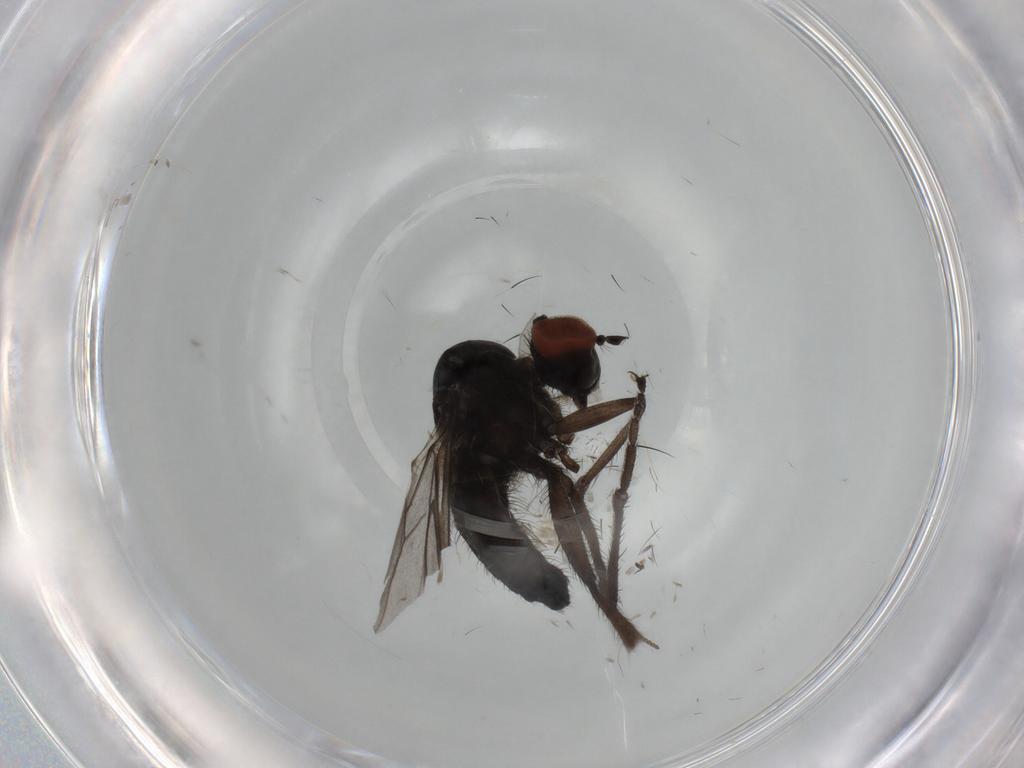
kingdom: Animalia
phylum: Arthropoda
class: Insecta
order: Diptera
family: Hybotidae
